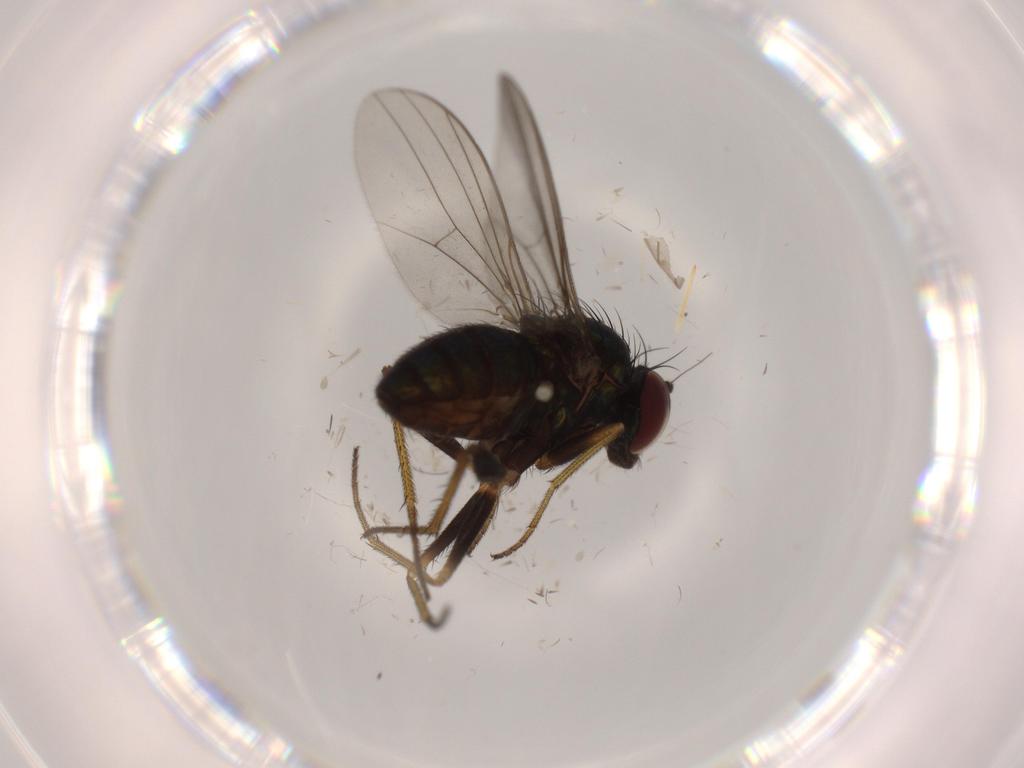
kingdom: Animalia
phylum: Arthropoda
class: Insecta
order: Diptera
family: Dolichopodidae
